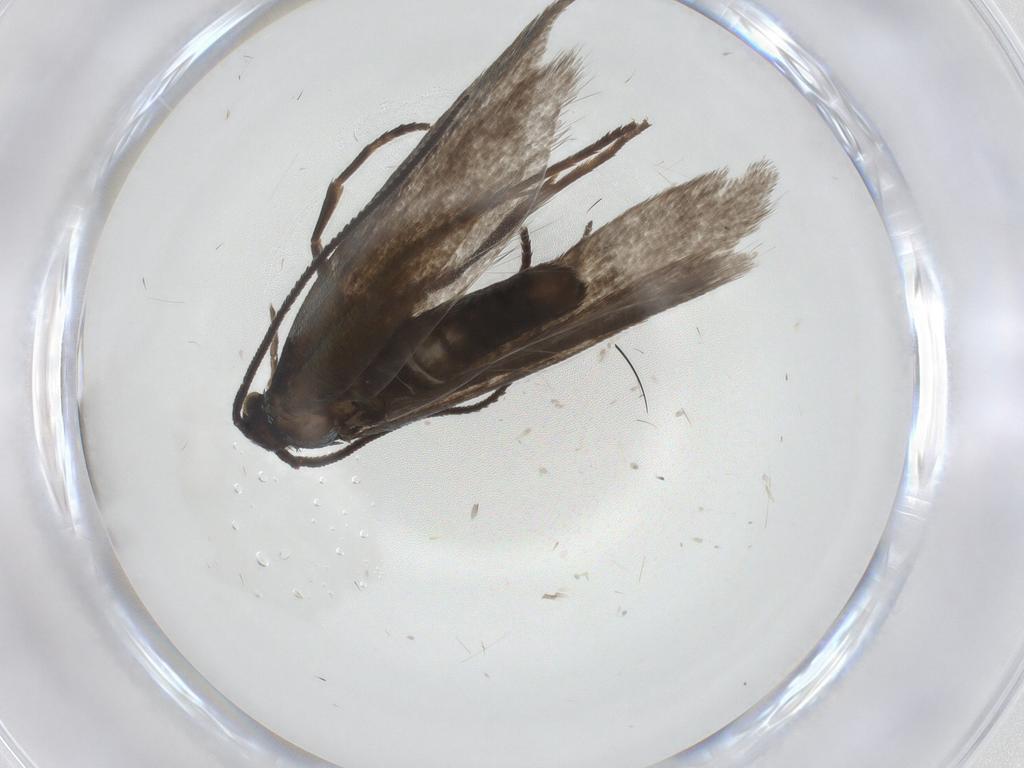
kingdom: Animalia
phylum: Arthropoda
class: Insecta
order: Lepidoptera
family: Argyresthiidae
